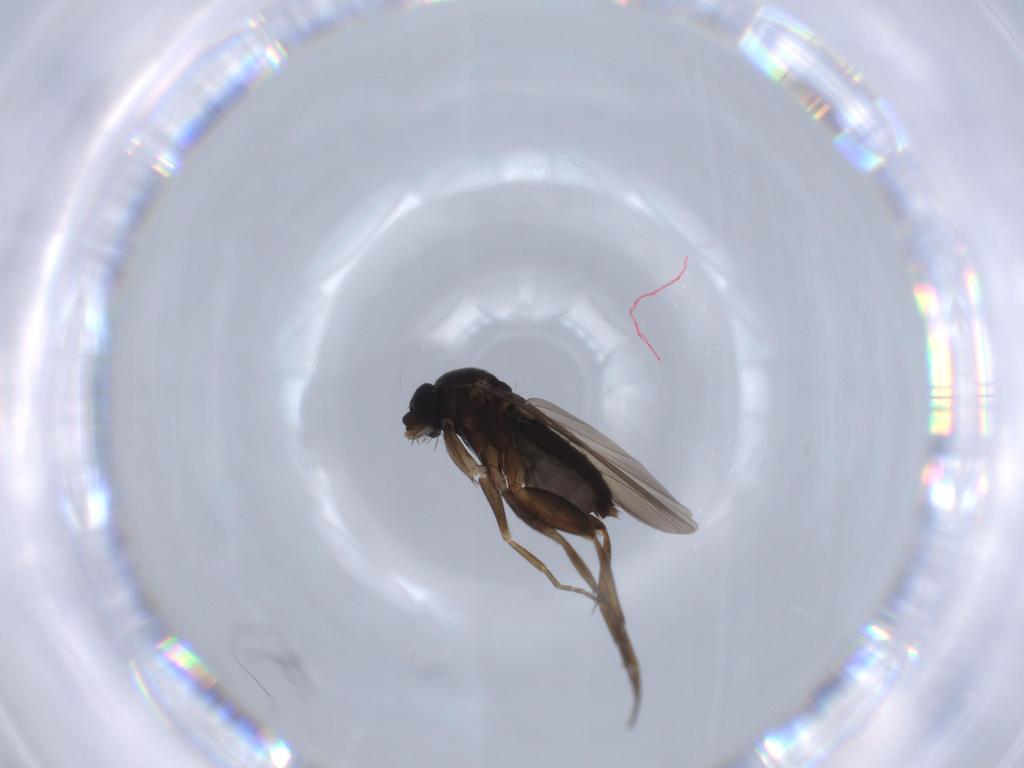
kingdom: Animalia
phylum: Arthropoda
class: Insecta
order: Diptera
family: Phoridae
